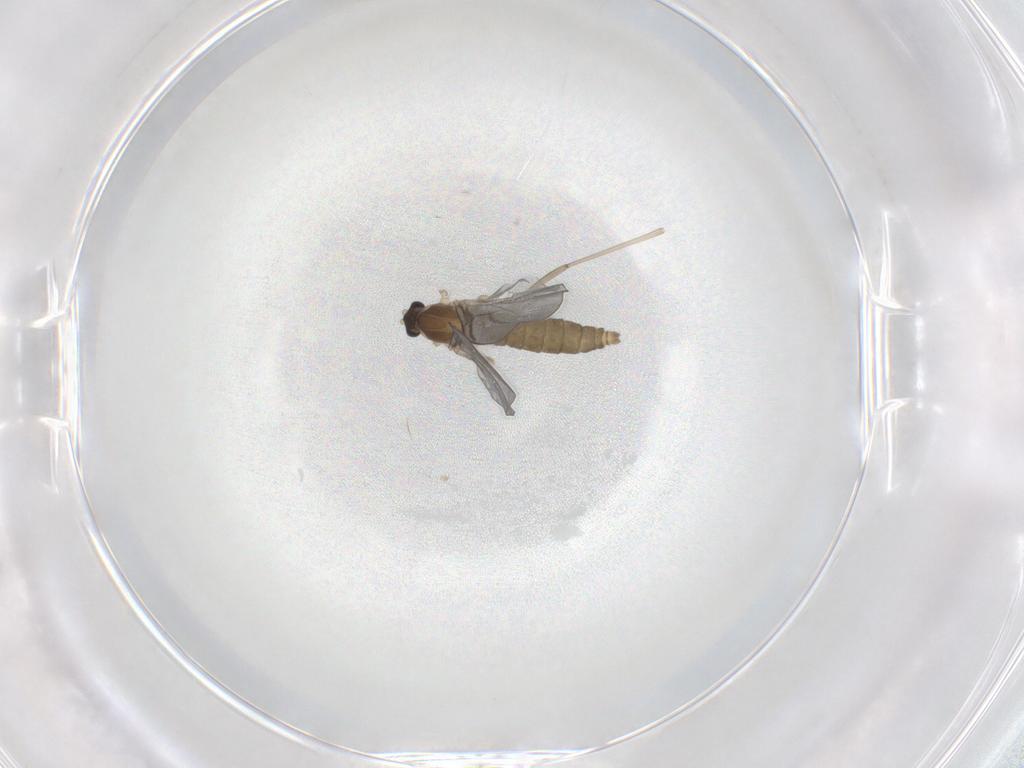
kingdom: Animalia
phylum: Arthropoda
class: Insecta
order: Diptera
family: Cecidomyiidae
